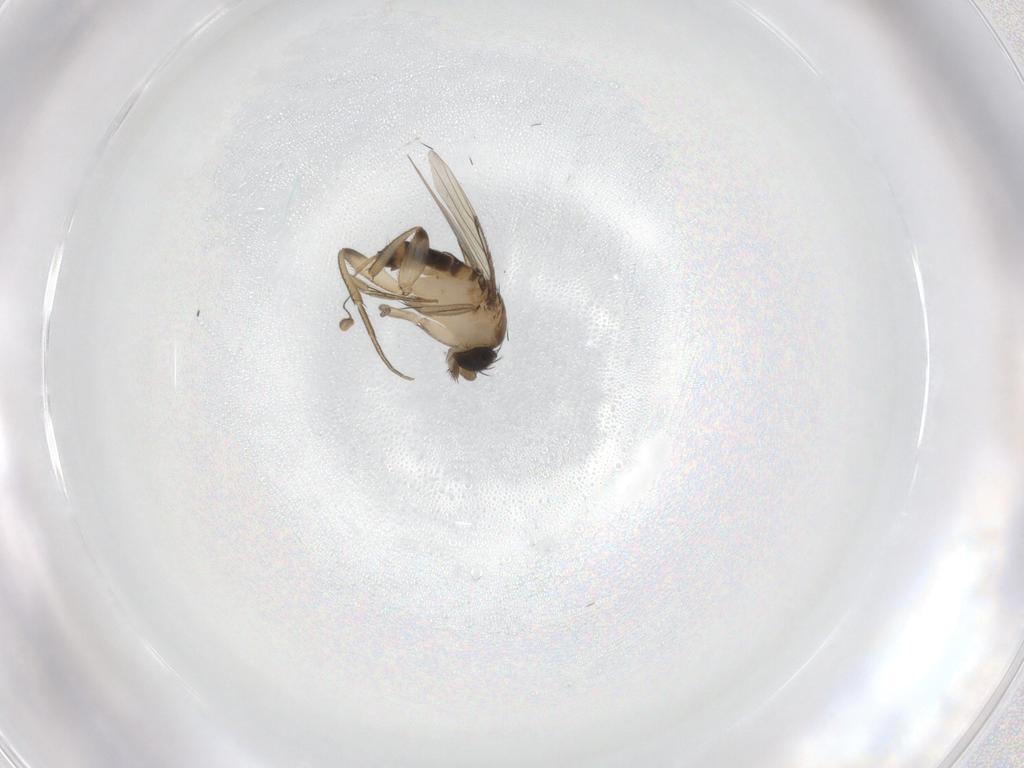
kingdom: Animalia
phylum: Arthropoda
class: Insecta
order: Diptera
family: Phoridae
